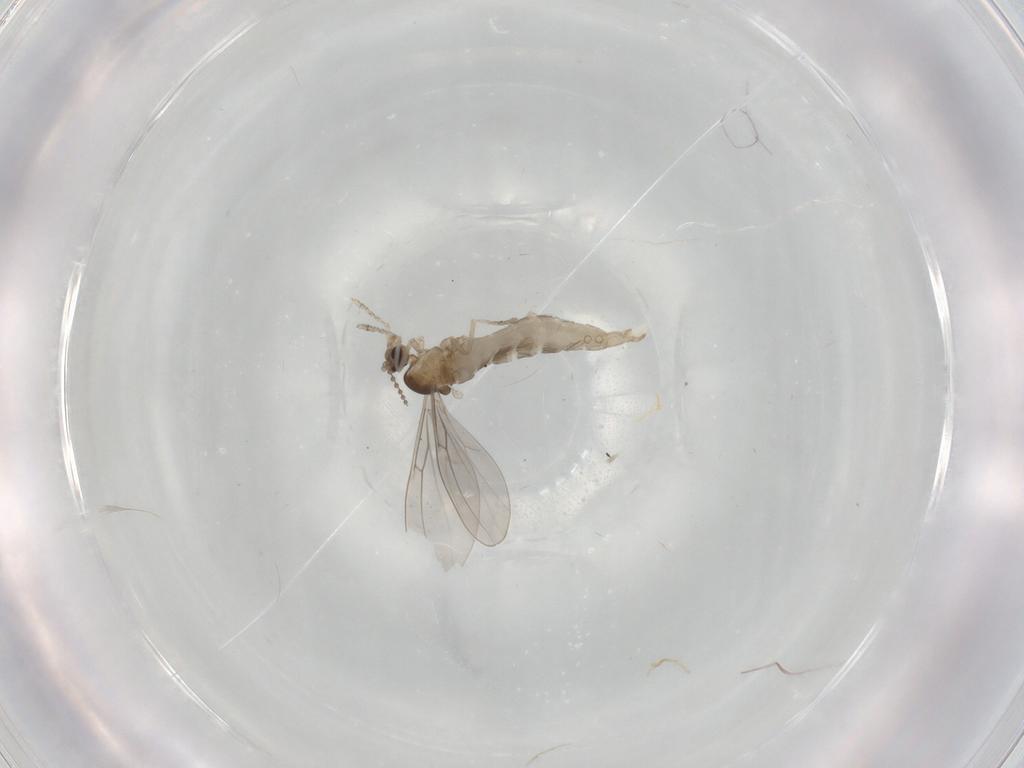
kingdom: Animalia
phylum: Arthropoda
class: Insecta
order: Diptera
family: Cecidomyiidae
